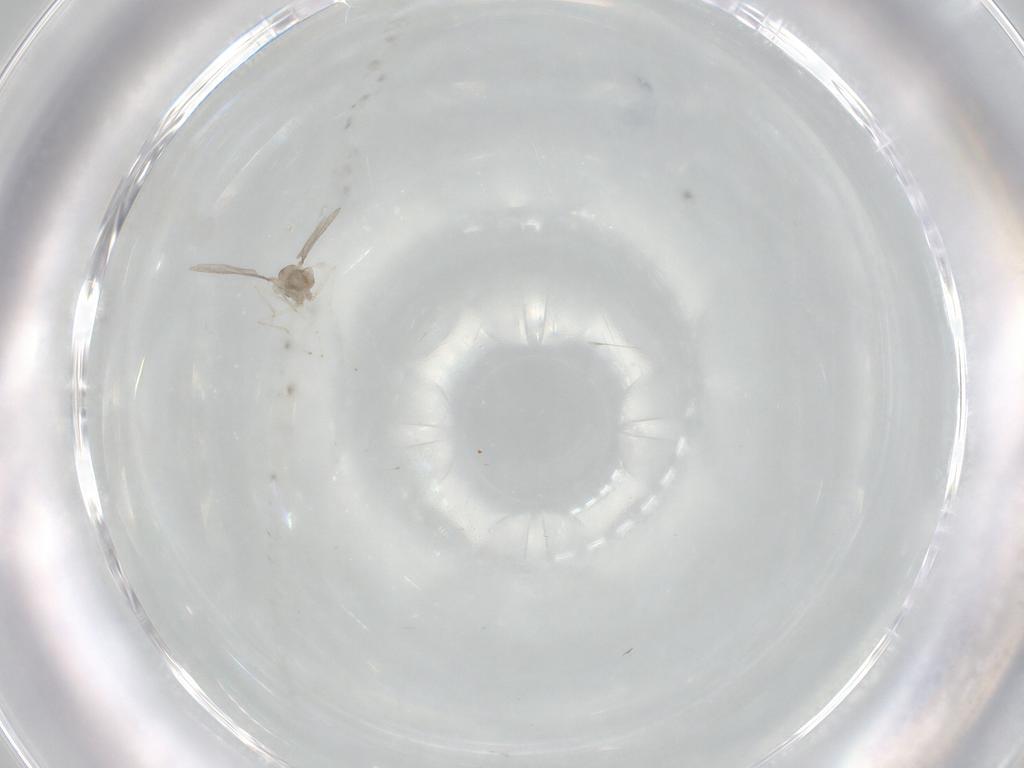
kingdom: Animalia
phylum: Arthropoda
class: Insecta
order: Diptera
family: Cecidomyiidae
